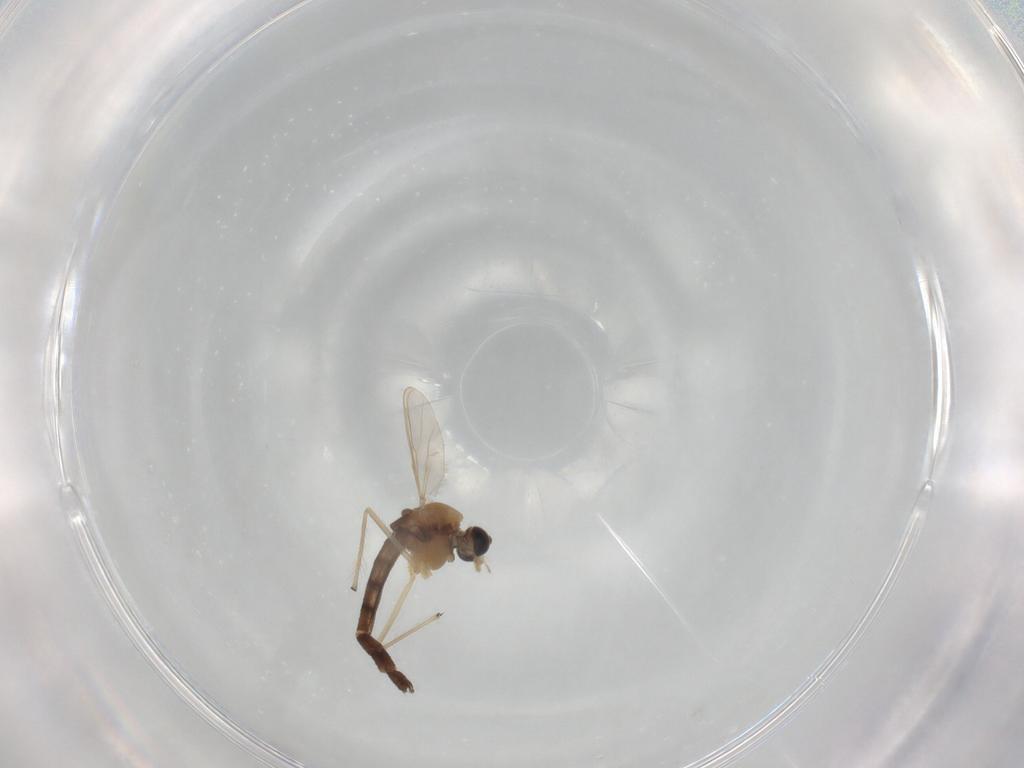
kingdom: Animalia
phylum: Arthropoda
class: Insecta
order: Diptera
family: Chironomidae
